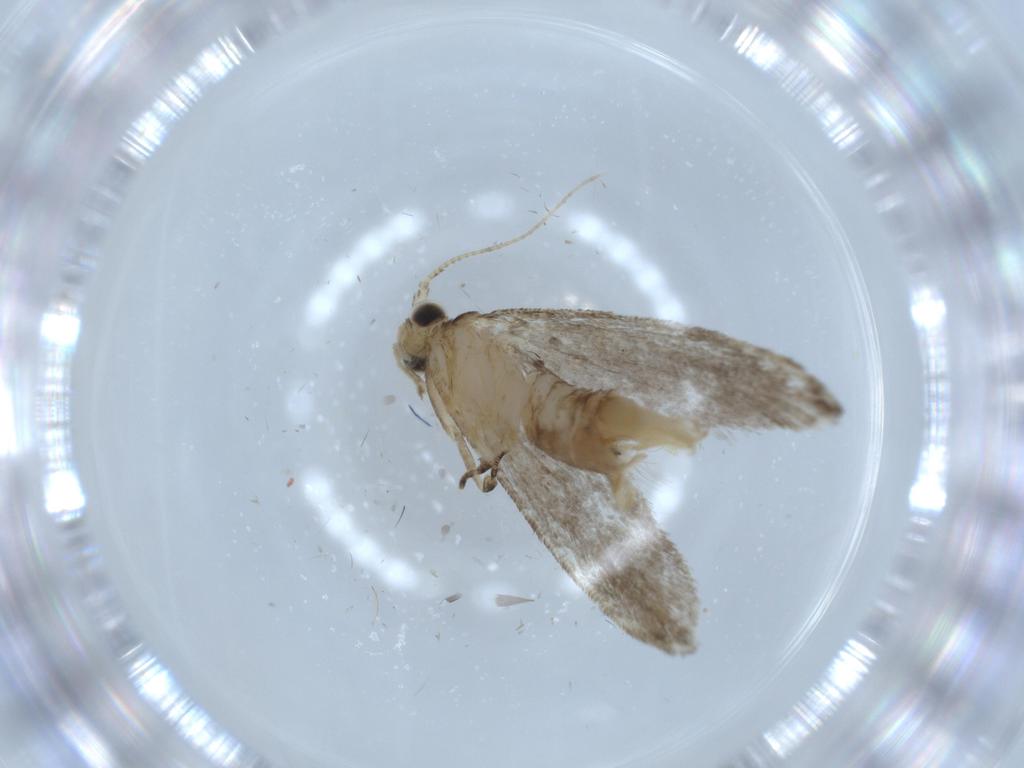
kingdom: Animalia
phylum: Arthropoda
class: Insecta
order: Lepidoptera
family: Tineidae
